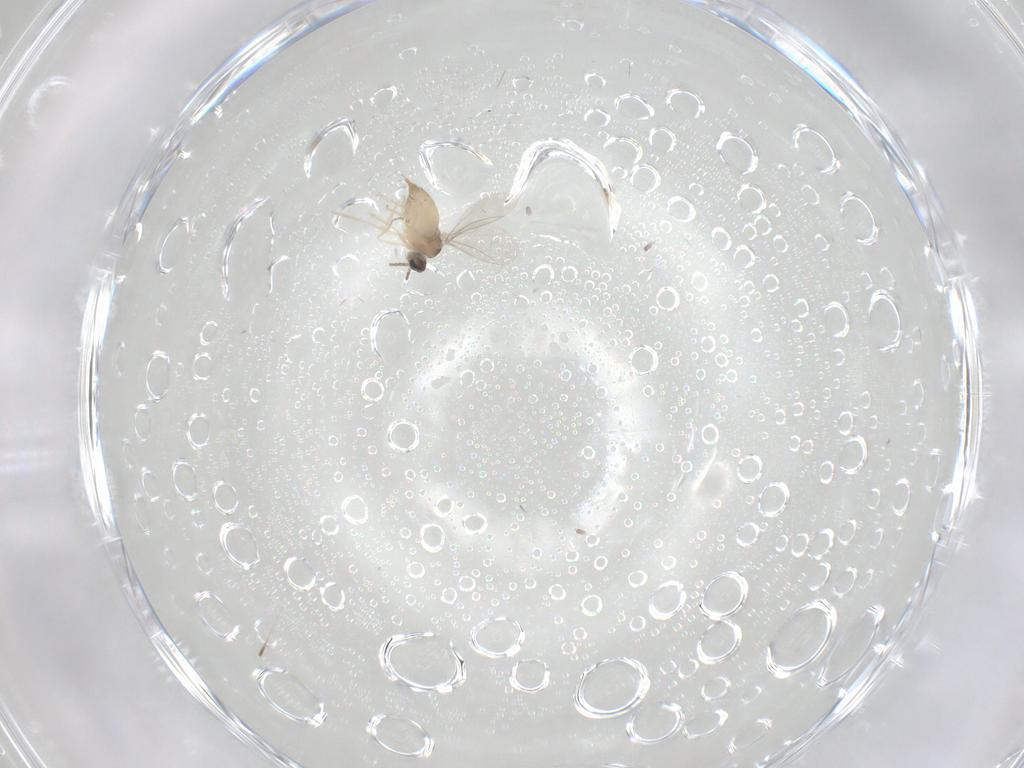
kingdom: Animalia
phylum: Arthropoda
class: Insecta
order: Diptera
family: Cecidomyiidae
